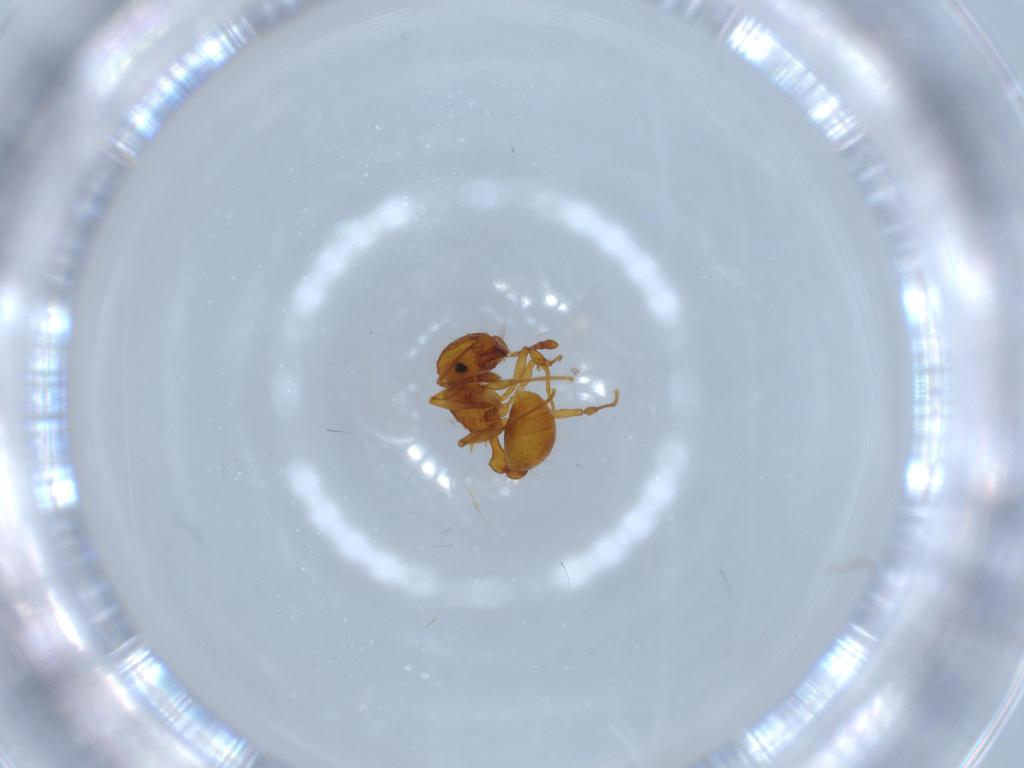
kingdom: Animalia
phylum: Arthropoda
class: Insecta
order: Hymenoptera
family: Formicidae
